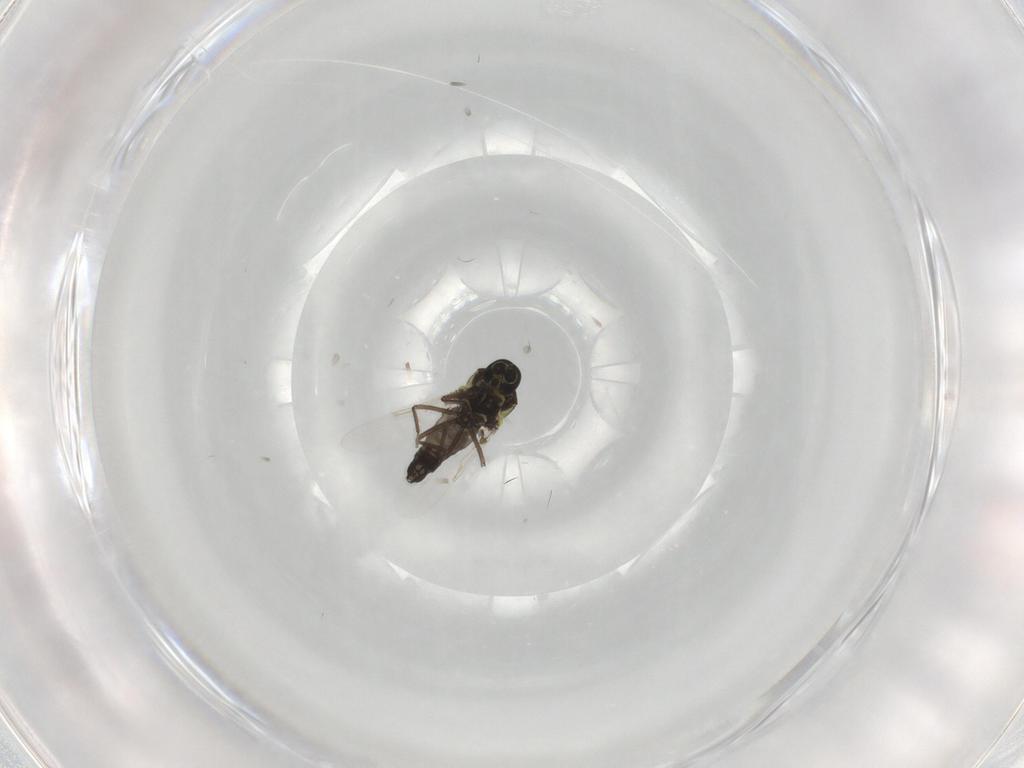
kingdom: Animalia
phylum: Arthropoda
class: Insecta
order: Diptera
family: Ceratopogonidae
